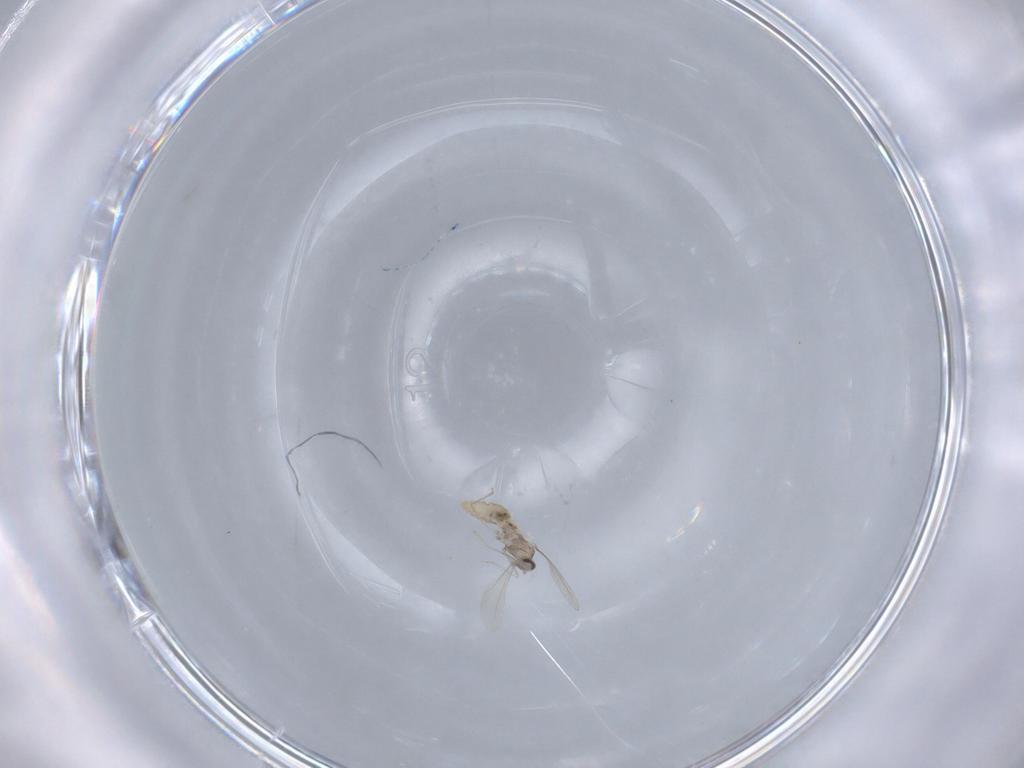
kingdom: Animalia
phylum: Arthropoda
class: Insecta
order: Diptera
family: Cecidomyiidae
